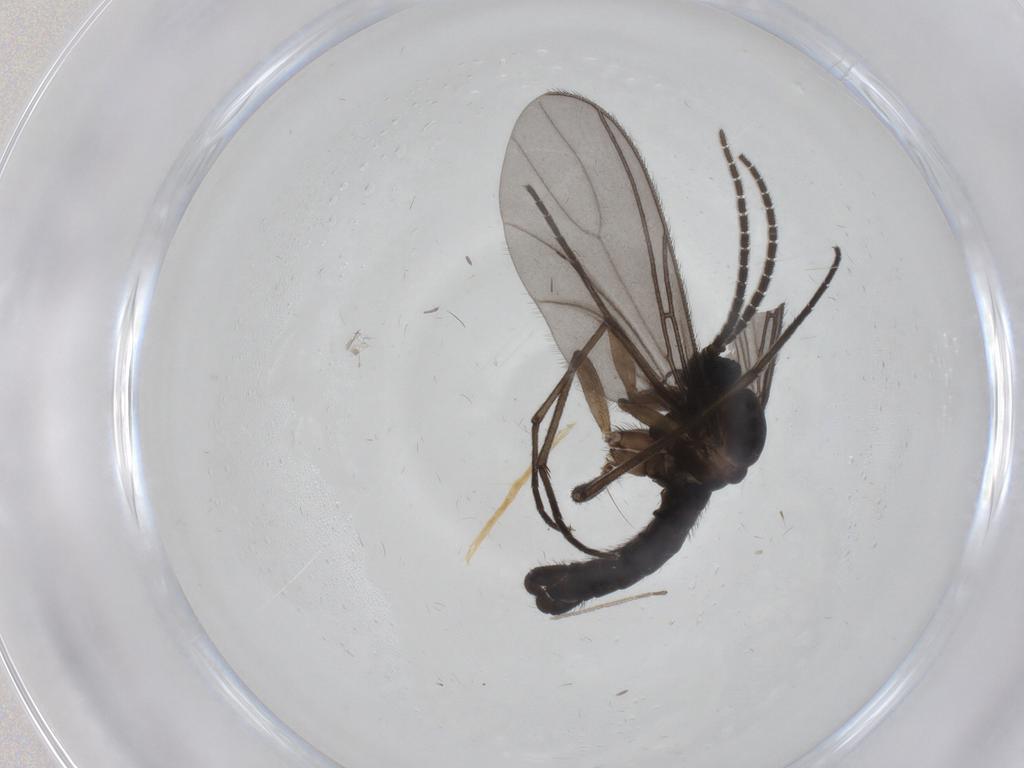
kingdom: Animalia
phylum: Arthropoda
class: Insecta
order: Diptera
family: Sciaridae
